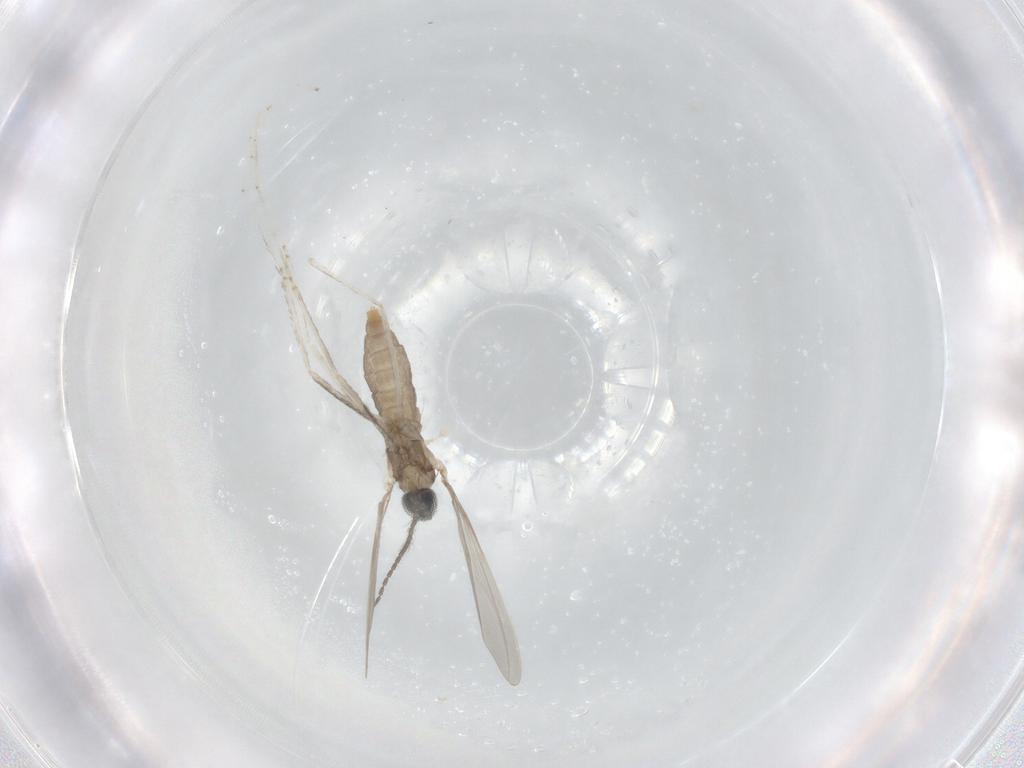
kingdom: Animalia
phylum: Arthropoda
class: Insecta
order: Diptera
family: Cecidomyiidae
